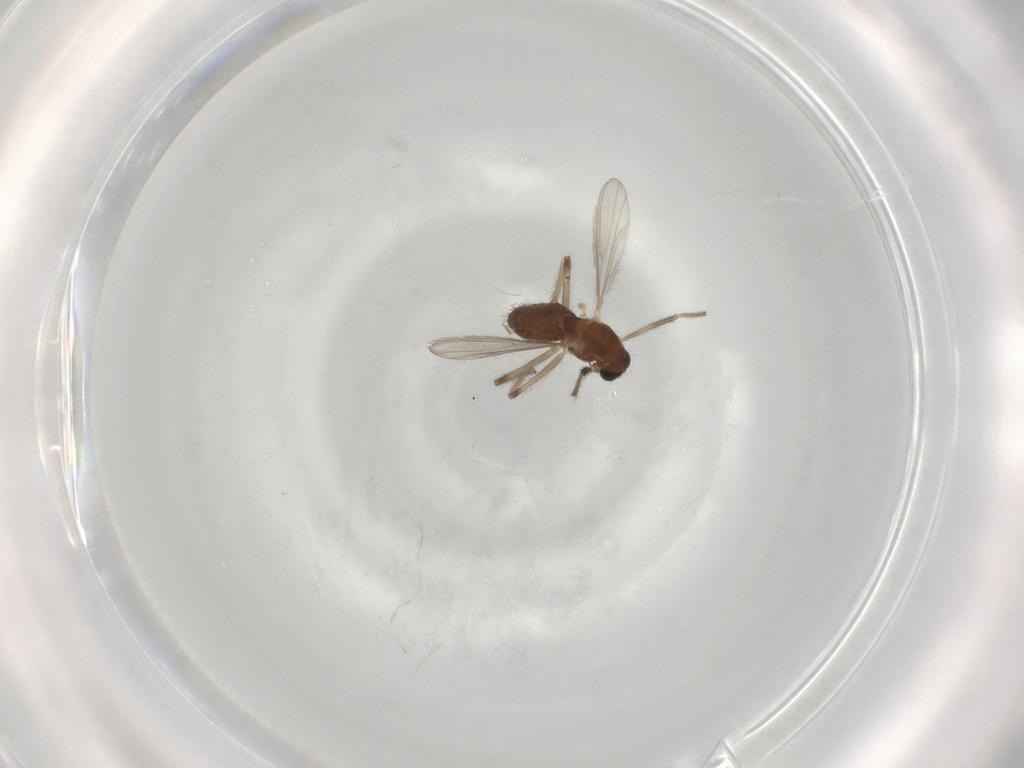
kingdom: Animalia
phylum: Arthropoda
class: Insecta
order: Diptera
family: Chironomidae
